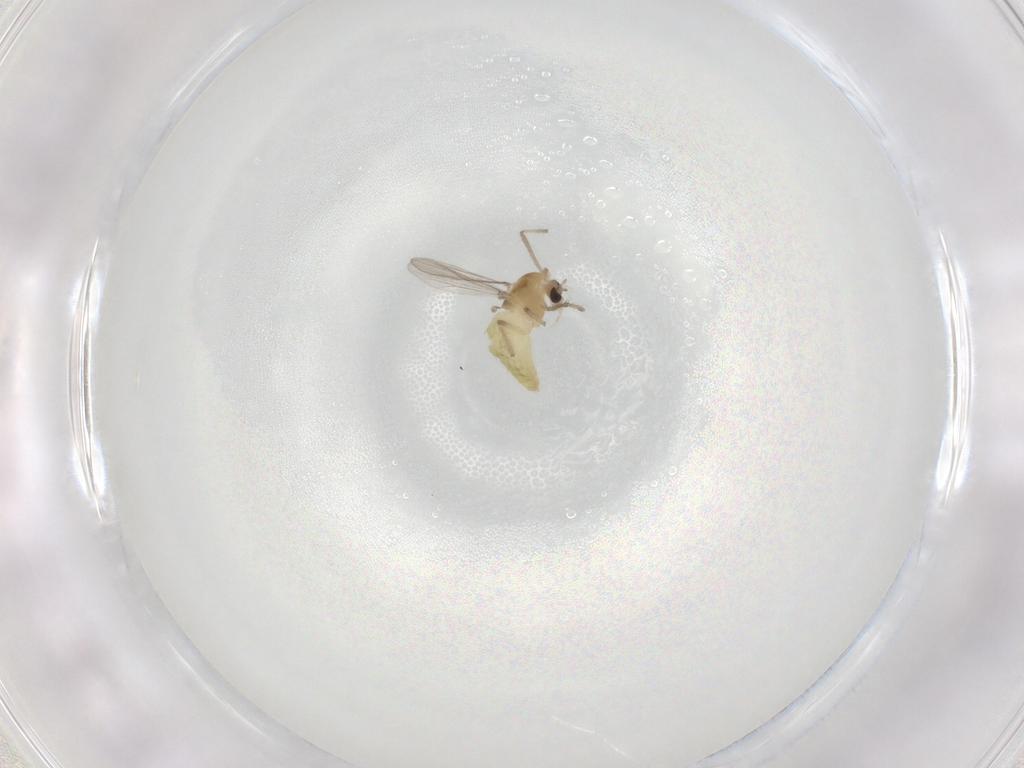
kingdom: Animalia
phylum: Arthropoda
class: Insecta
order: Diptera
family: Chironomidae
